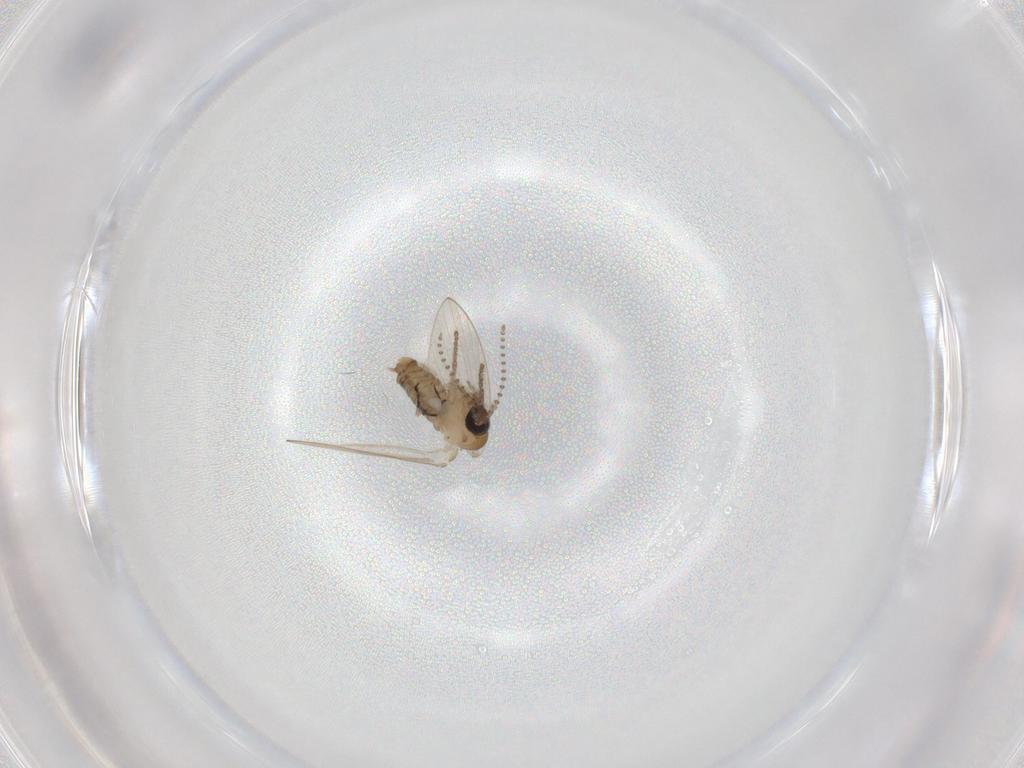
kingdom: Animalia
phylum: Arthropoda
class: Insecta
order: Diptera
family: Psychodidae
